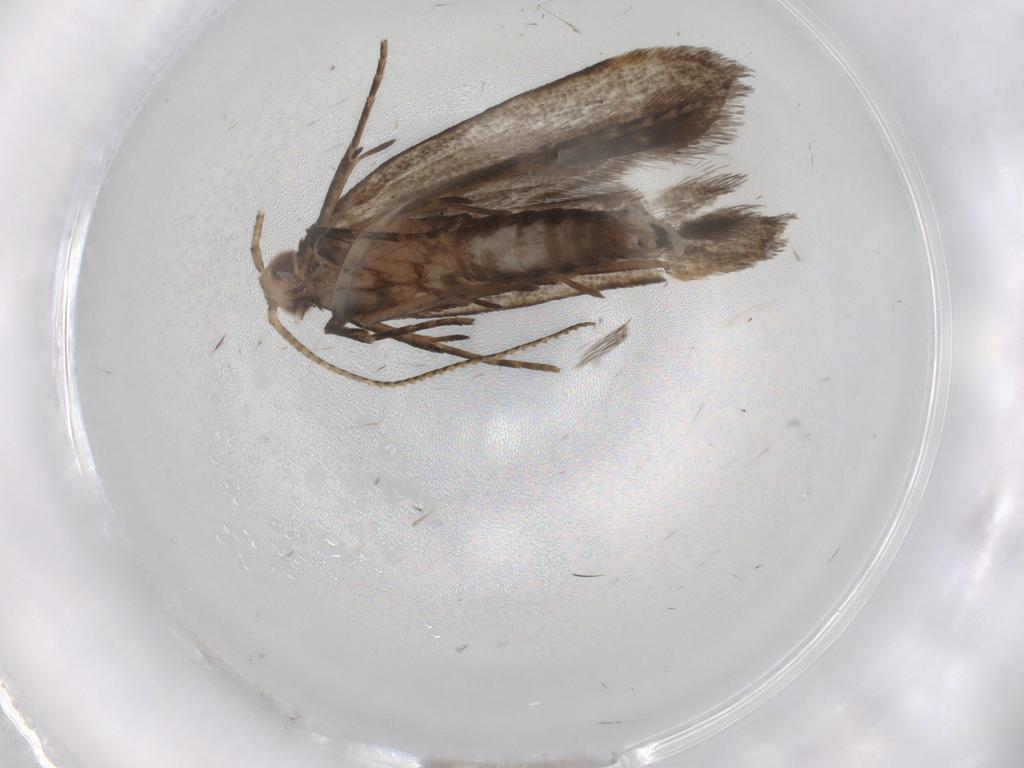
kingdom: Animalia
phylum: Arthropoda
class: Insecta
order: Lepidoptera
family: Gelechiidae
